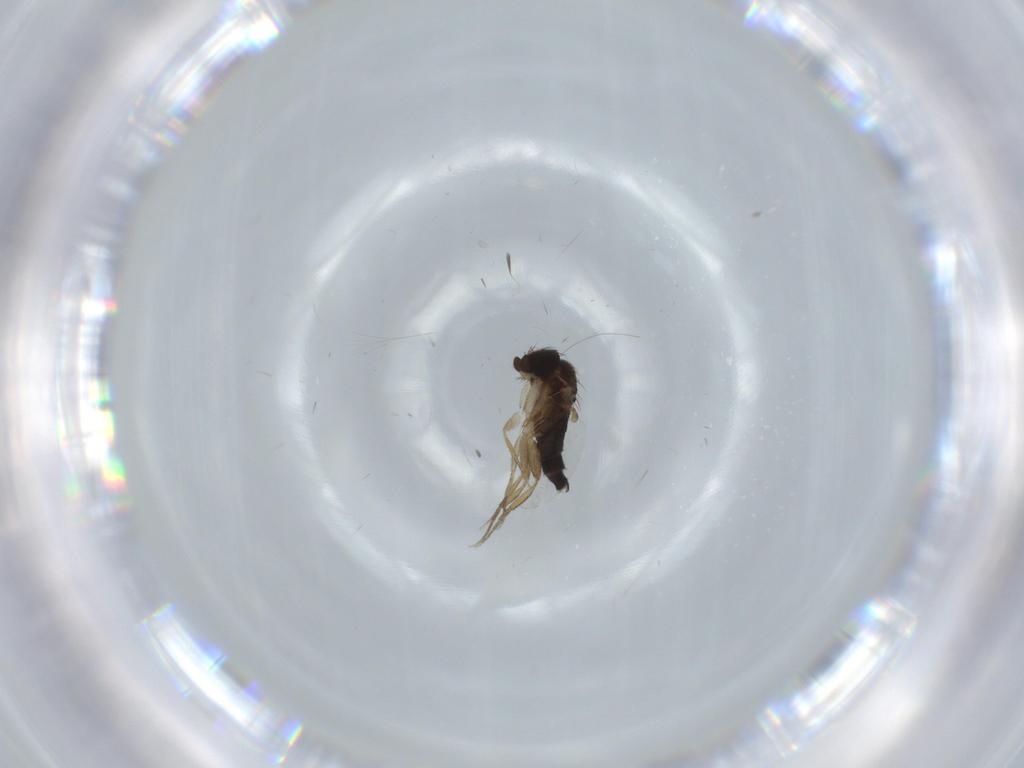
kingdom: Animalia
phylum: Arthropoda
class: Insecta
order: Diptera
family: Phoridae
